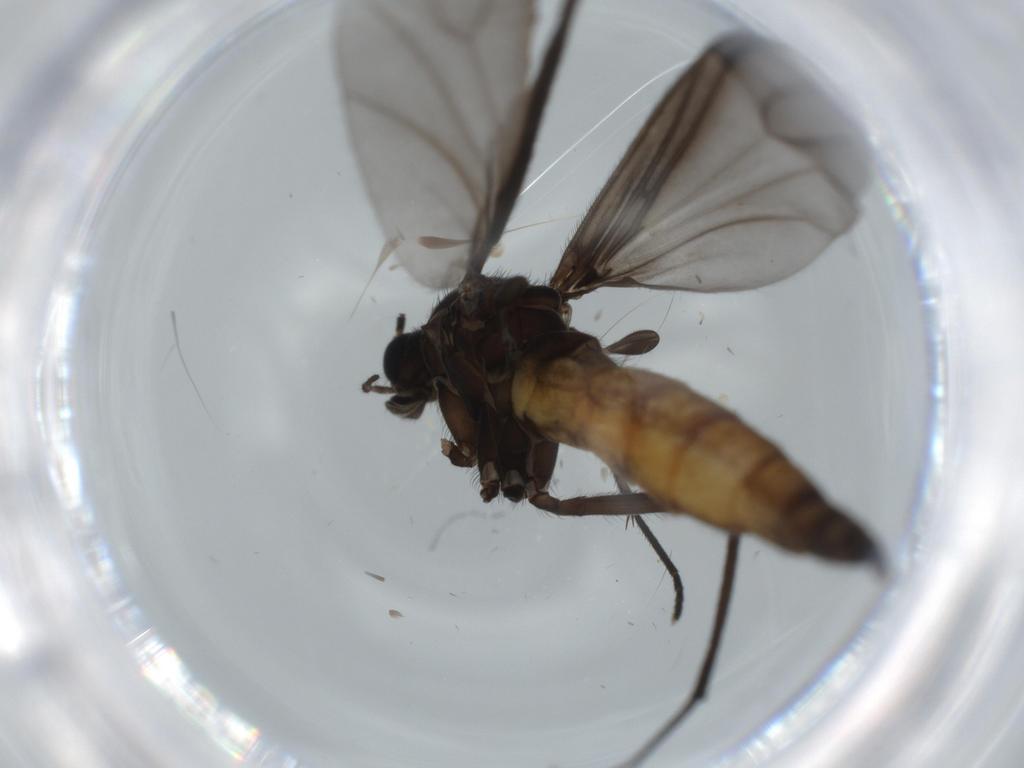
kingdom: Animalia
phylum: Arthropoda
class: Insecta
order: Diptera
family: Sciaridae
